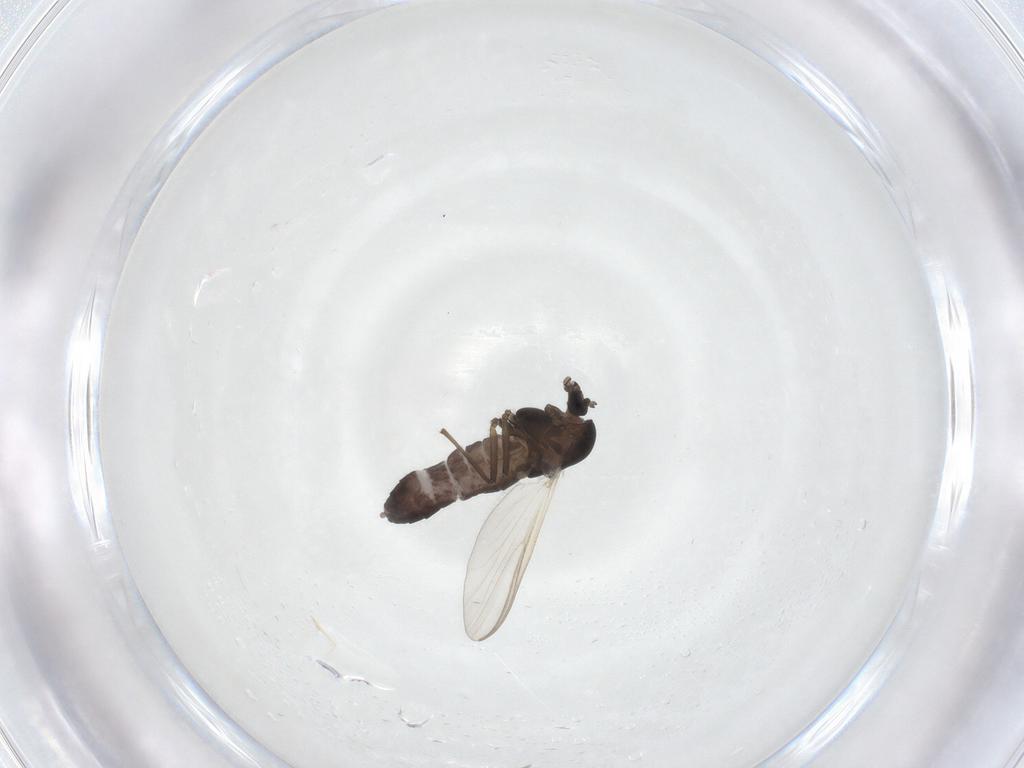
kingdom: Animalia
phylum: Arthropoda
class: Insecta
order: Diptera
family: Chironomidae
